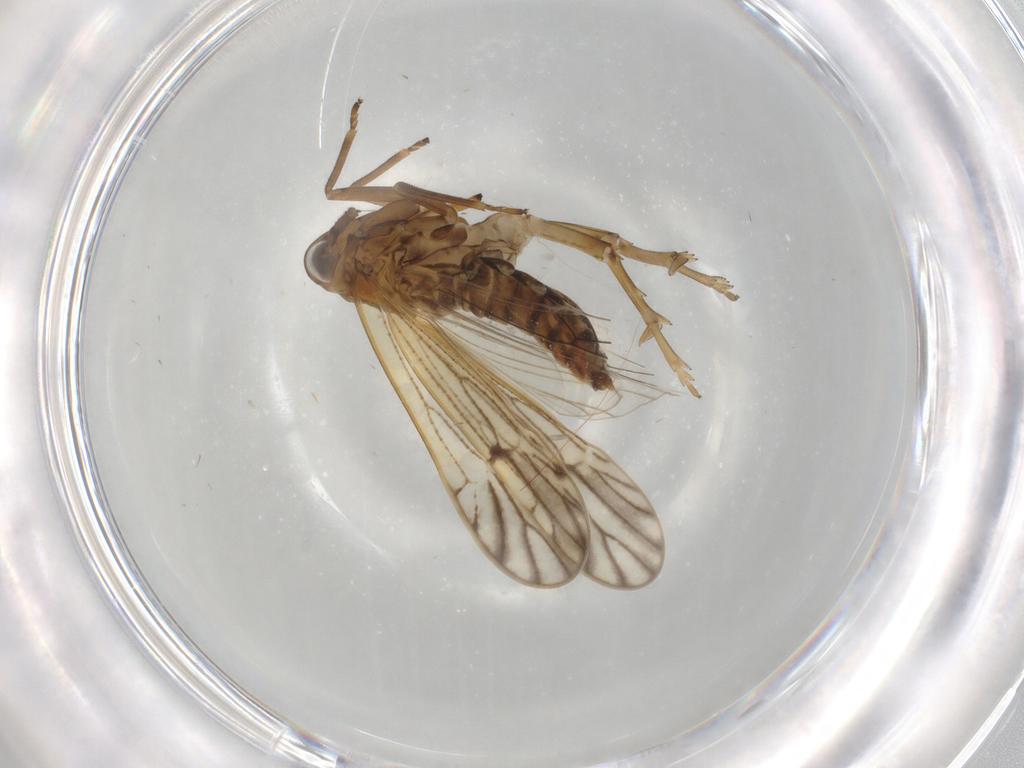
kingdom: Animalia
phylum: Arthropoda
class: Insecta
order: Hemiptera
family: Delphacidae
